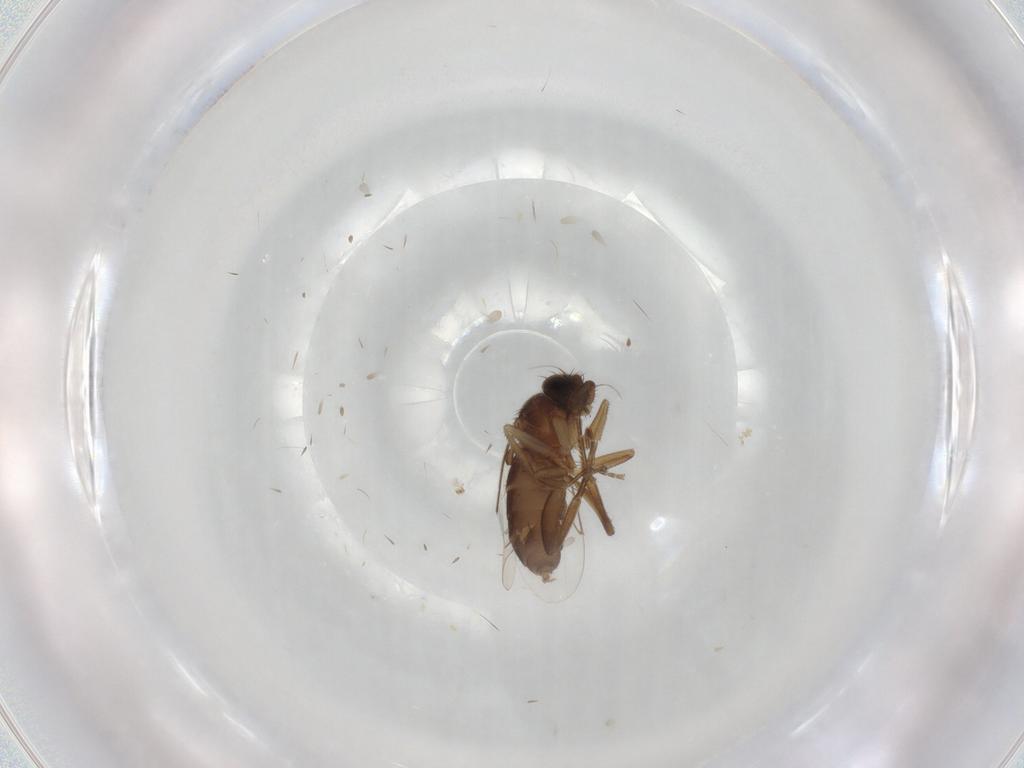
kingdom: Animalia
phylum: Arthropoda
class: Insecta
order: Diptera
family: Phoridae
